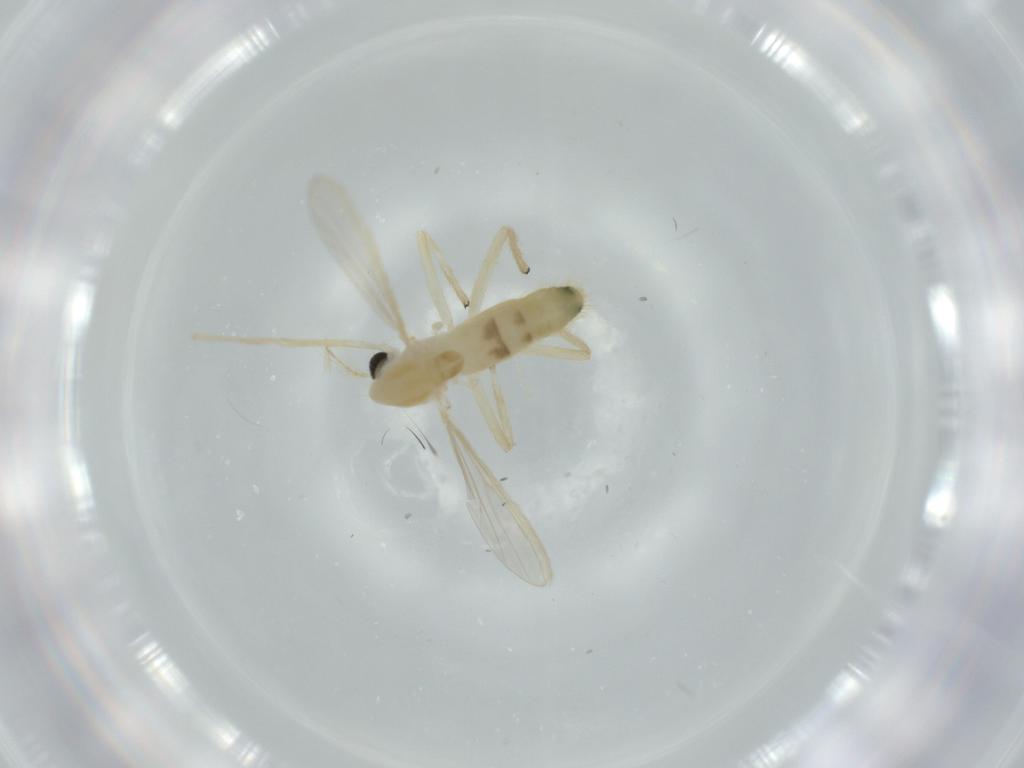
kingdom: Animalia
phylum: Arthropoda
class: Insecta
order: Diptera
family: Chironomidae
